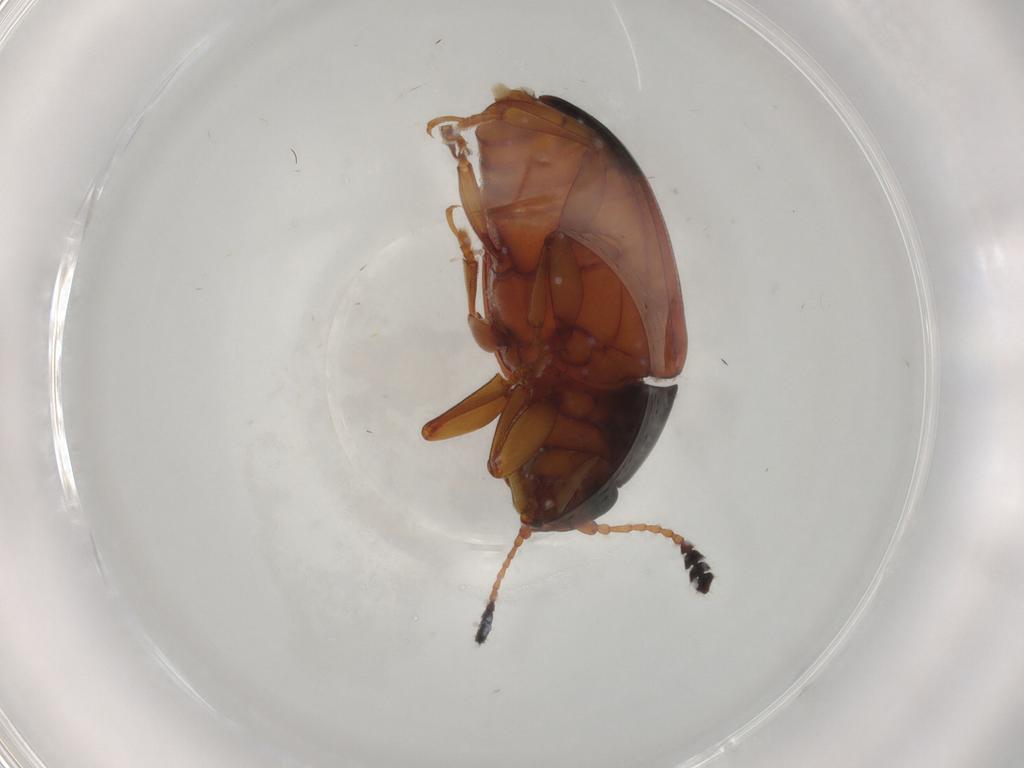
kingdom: Animalia
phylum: Arthropoda
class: Insecta
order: Coleoptera
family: Erotylidae
